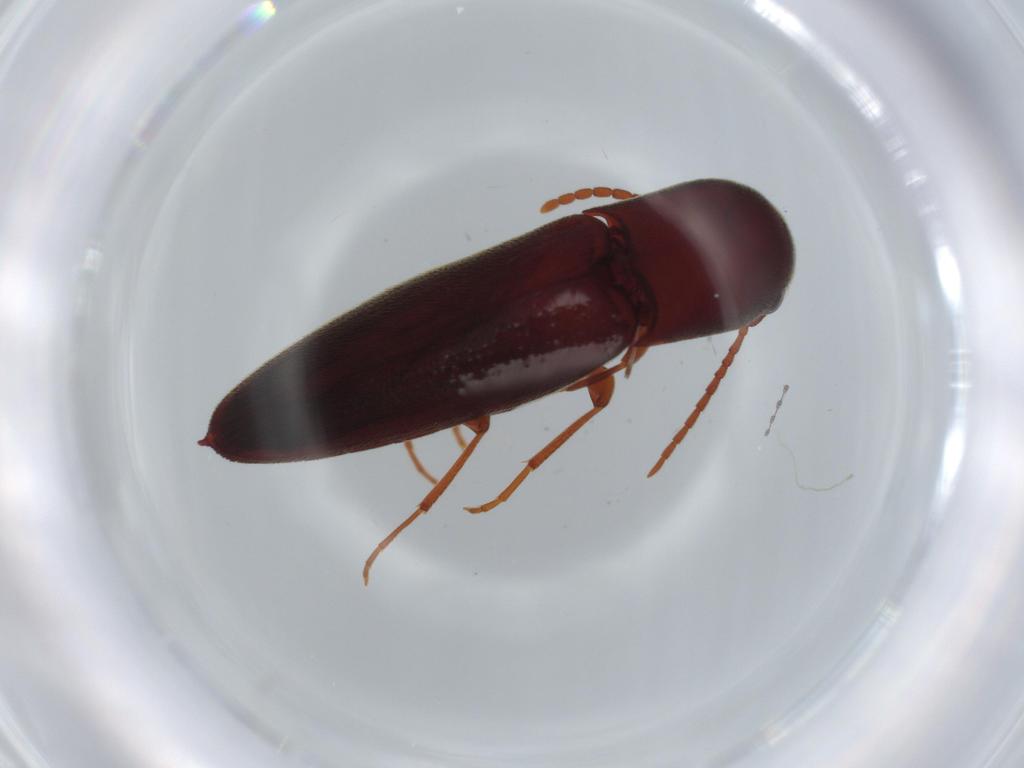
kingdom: Animalia
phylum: Arthropoda
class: Insecta
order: Coleoptera
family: Eucnemidae
